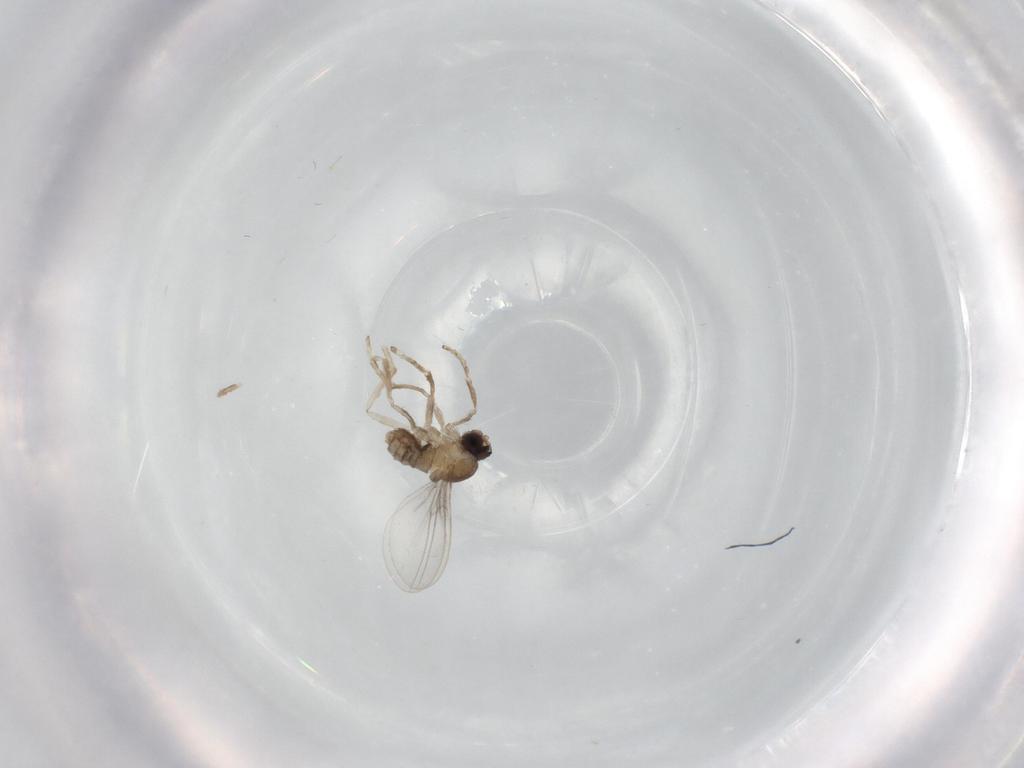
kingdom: Animalia
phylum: Arthropoda
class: Insecta
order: Diptera
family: Cecidomyiidae
